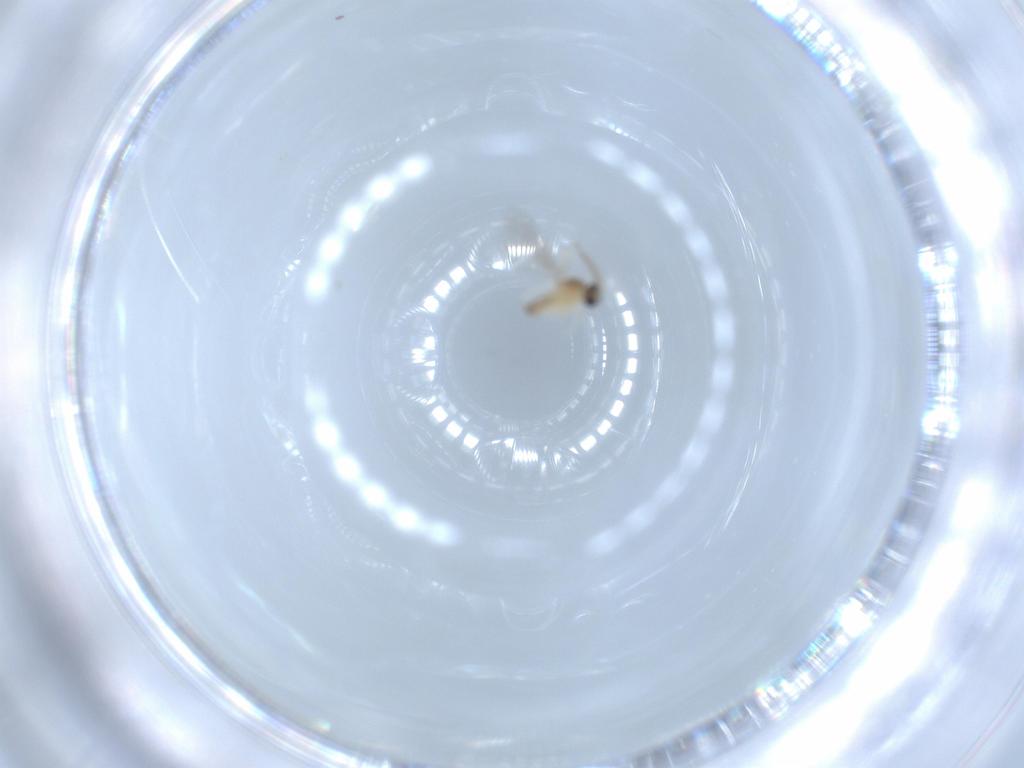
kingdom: Animalia
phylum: Arthropoda
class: Insecta
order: Diptera
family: Cecidomyiidae
